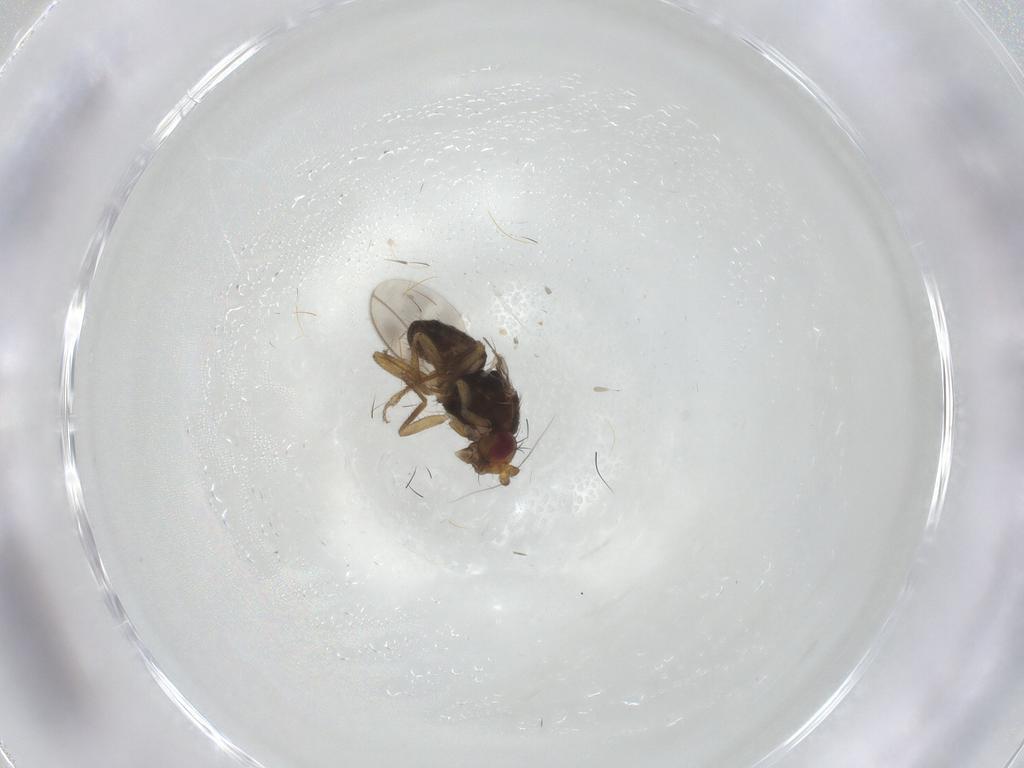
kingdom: Animalia
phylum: Arthropoda
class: Insecta
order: Diptera
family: Sphaeroceridae
